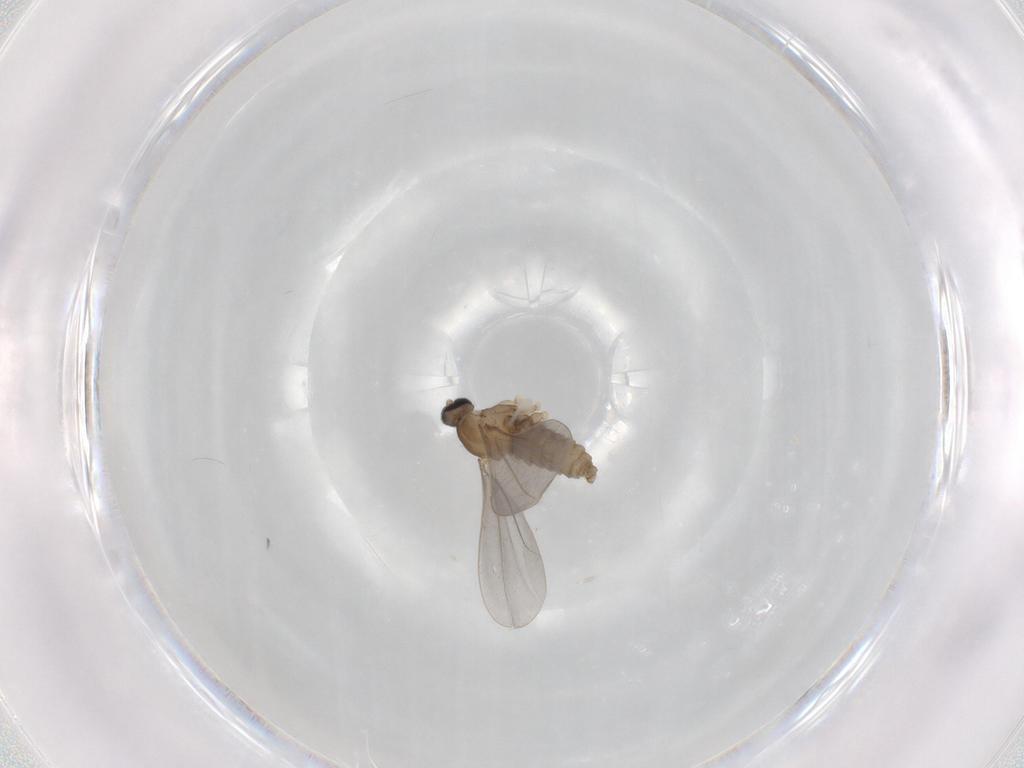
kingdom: Animalia
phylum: Arthropoda
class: Insecta
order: Diptera
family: Cecidomyiidae
